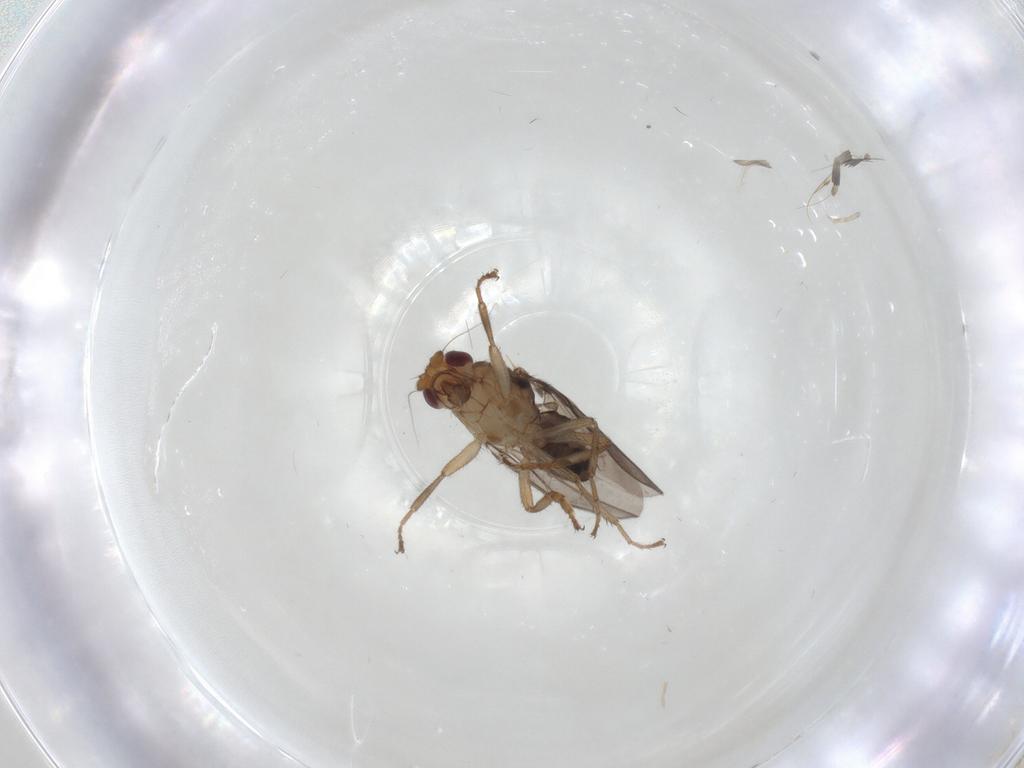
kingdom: Animalia
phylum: Arthropoda
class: Insecta
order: Diptera
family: Sphaeroceridae
